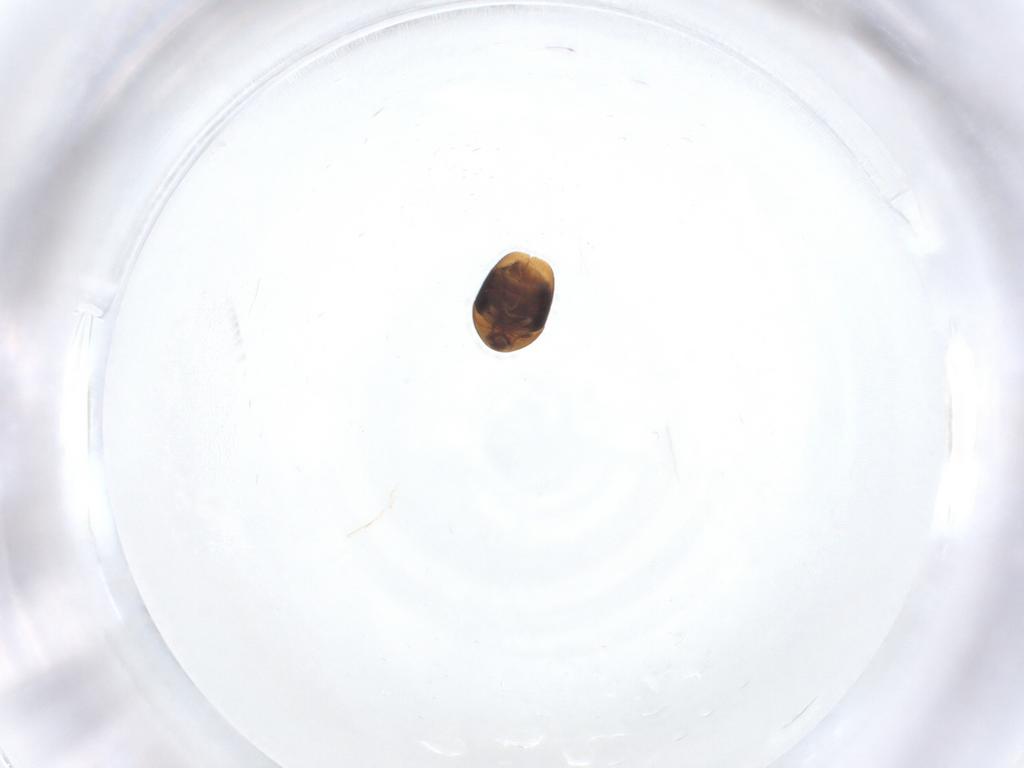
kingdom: Animalia
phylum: Arthropoda
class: Insecta
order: Coleoptera
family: Corylophidae
